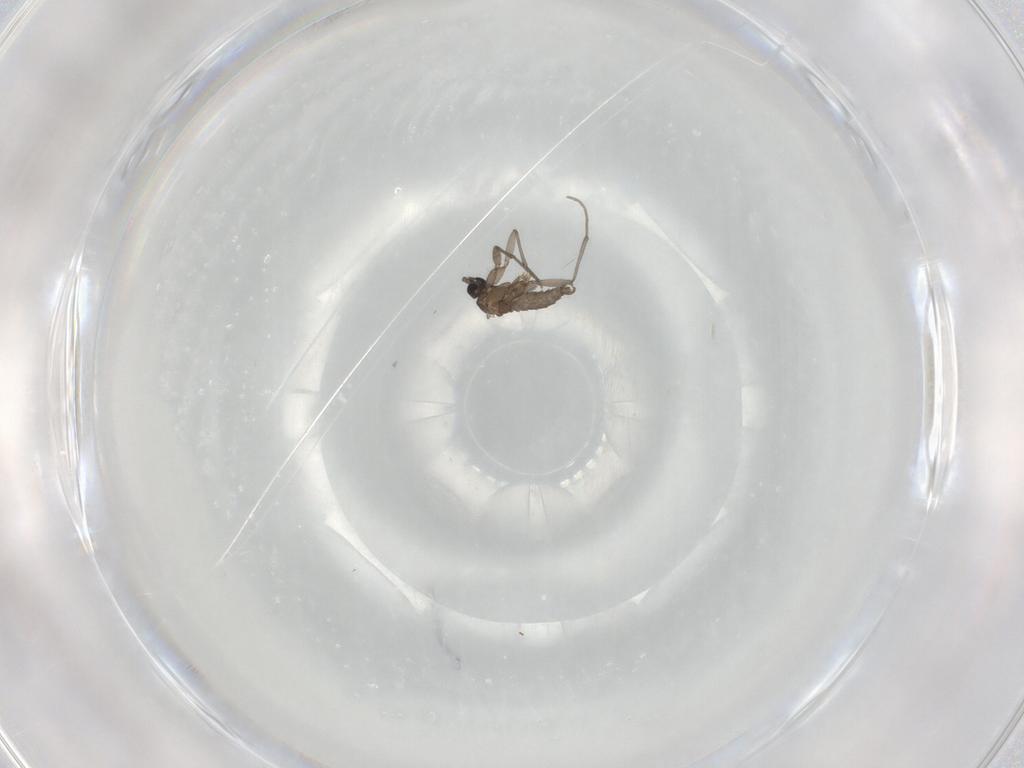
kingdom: Animalia
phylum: Arthropoda
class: Insecta
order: Diptera
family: Sciaridae
